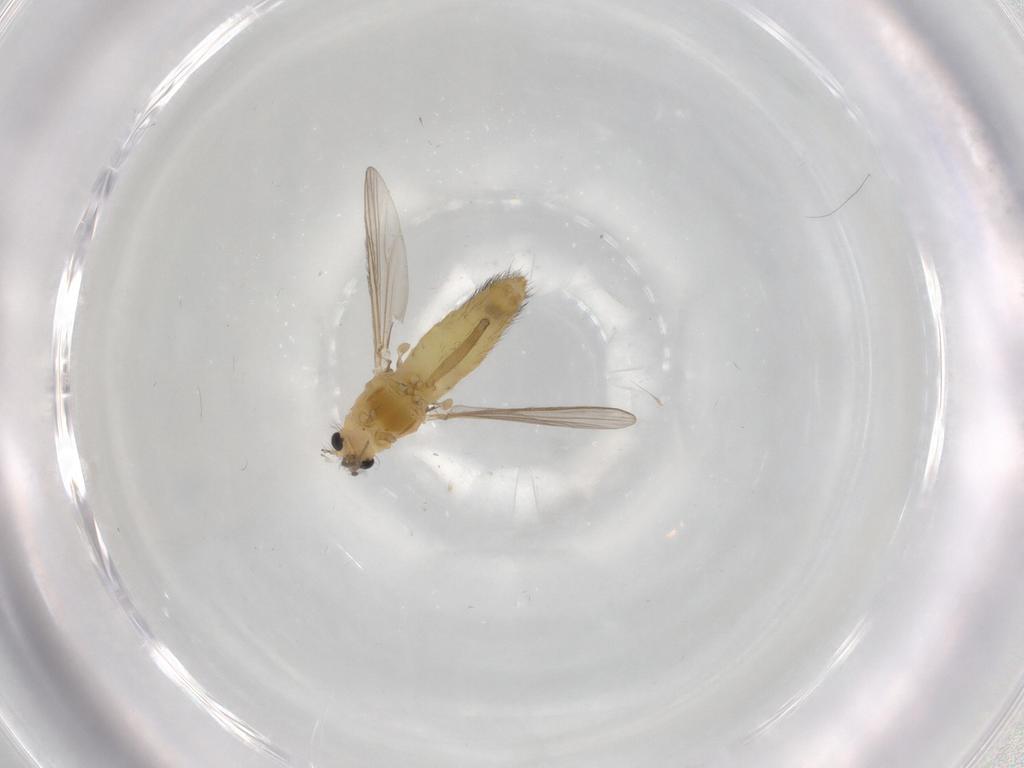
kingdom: Animalia
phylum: Arthropoda
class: Insecta
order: Diptera
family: Chironomidae
